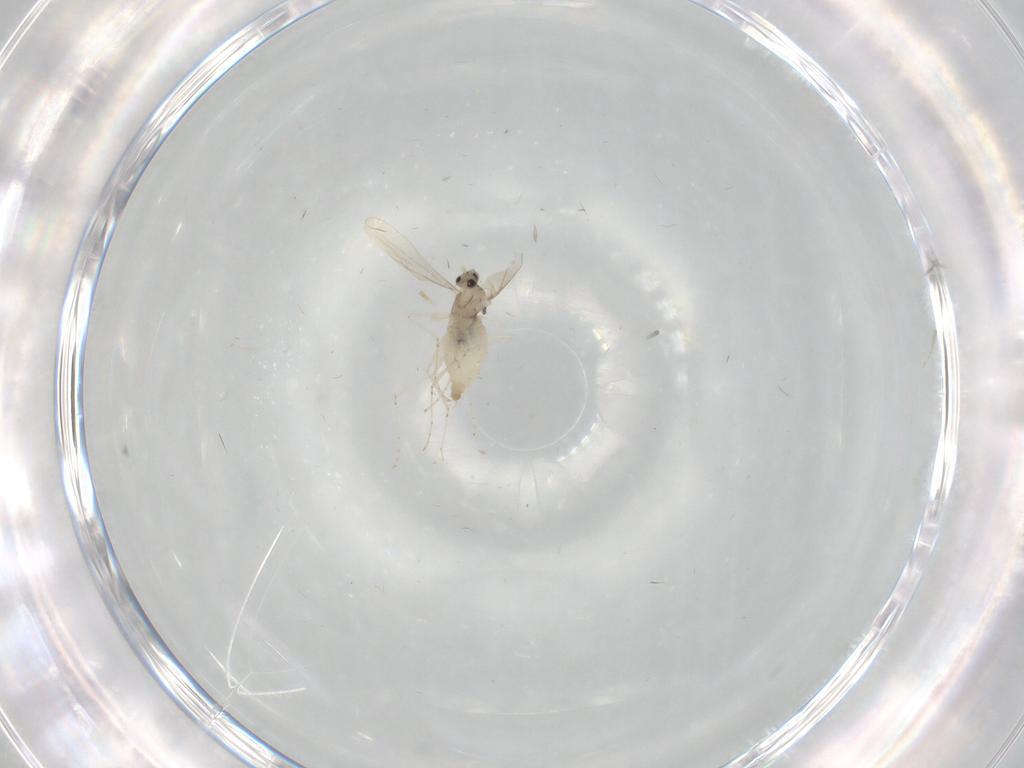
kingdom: Animalia
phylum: Arthropoda
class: Insecta
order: Diptera
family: Cecidomyiidae
